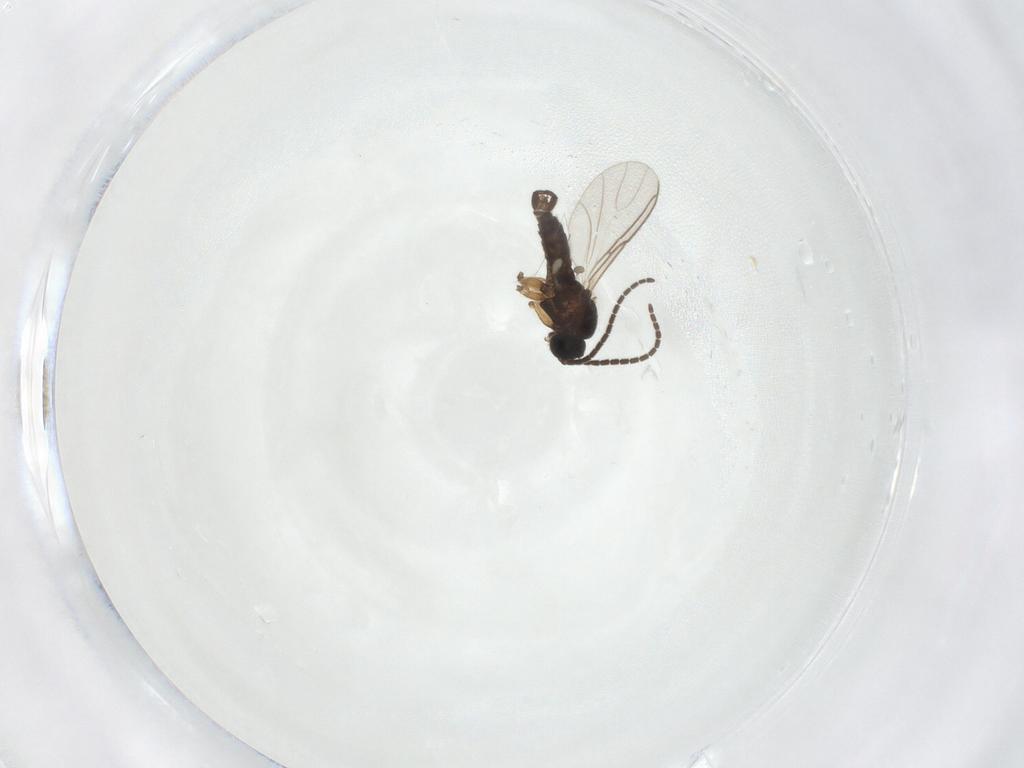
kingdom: Animalia
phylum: Arthropoda
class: Insecta
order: Diptera
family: Sciaridae
